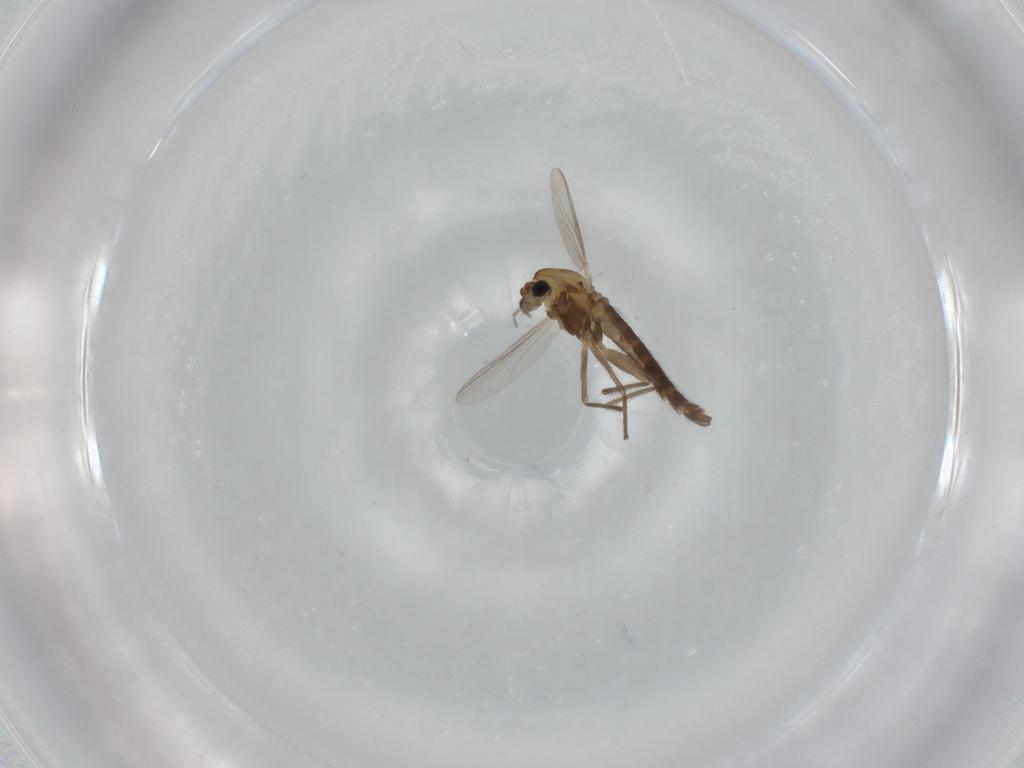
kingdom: Animalia
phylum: Arthropoda
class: Insecta
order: Diptera
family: Chironomidae
